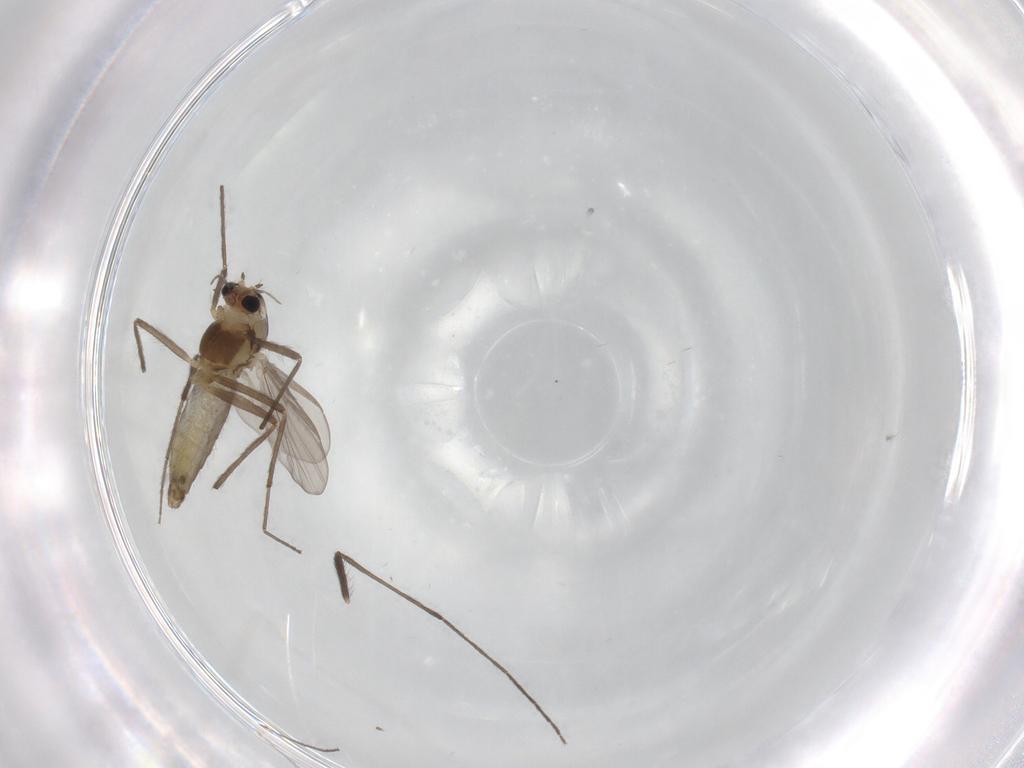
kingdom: Animalia
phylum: Arthropoda
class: Insecta
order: Diptera
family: Chironomidae
